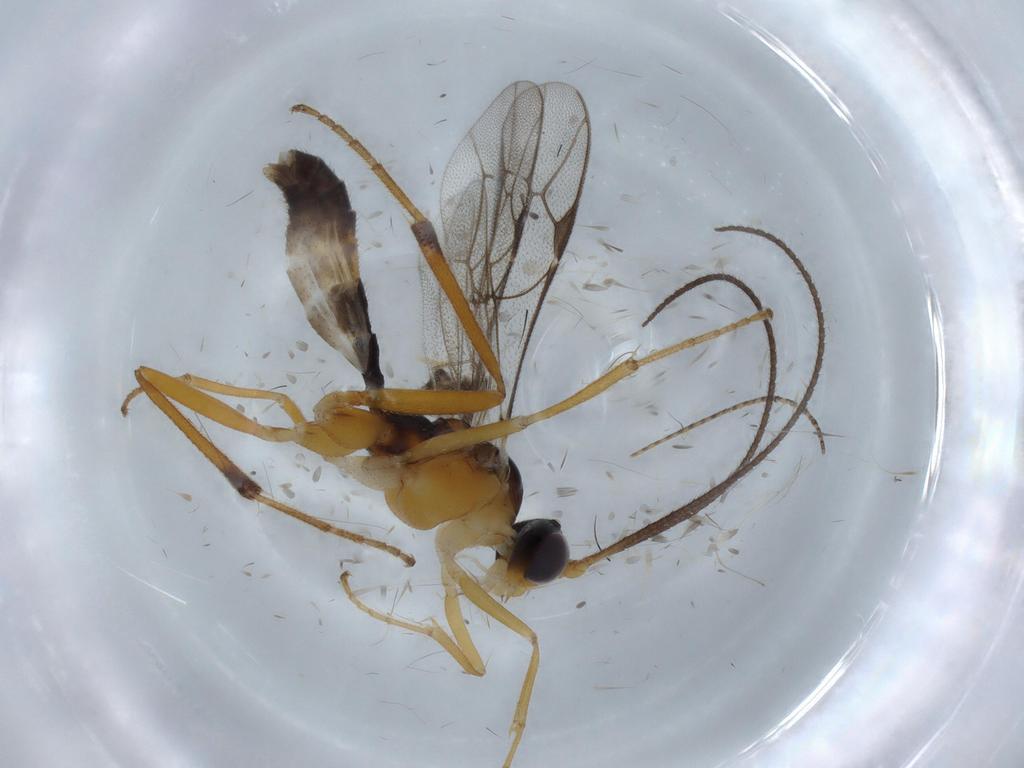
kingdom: Animalia
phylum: Arthropoda
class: Insecta
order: Hymenoptera
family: Ichneumonidae
